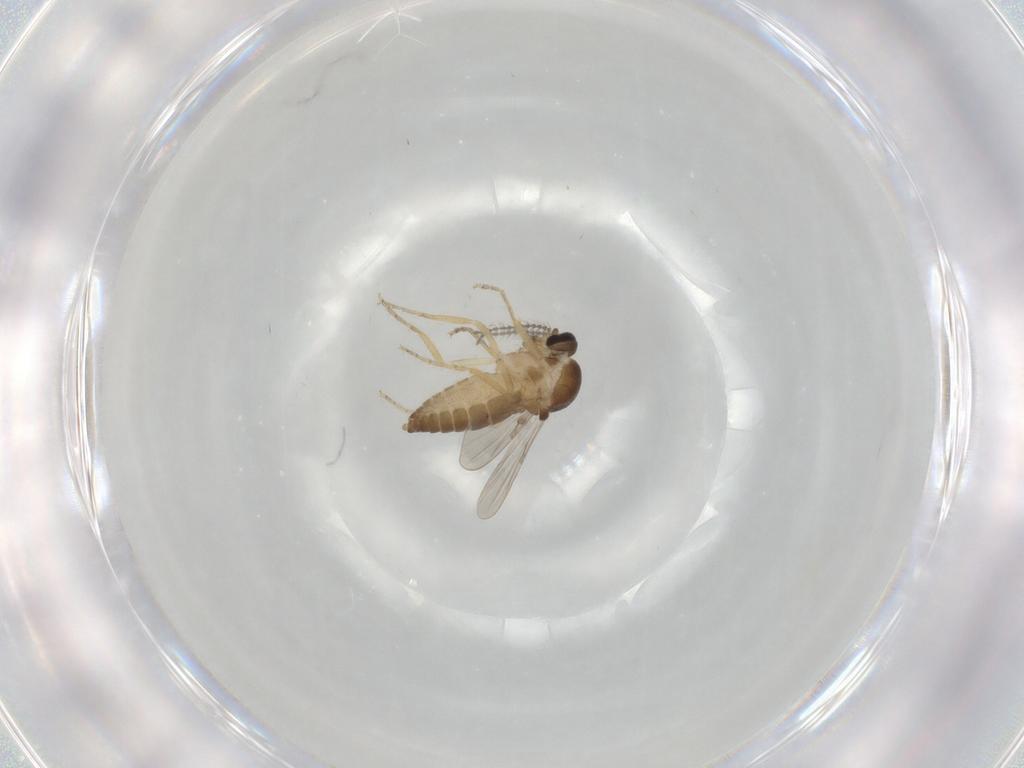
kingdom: Animalia
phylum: Arthropoda
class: Insecta
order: Diptera
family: Ceratopogonidae
